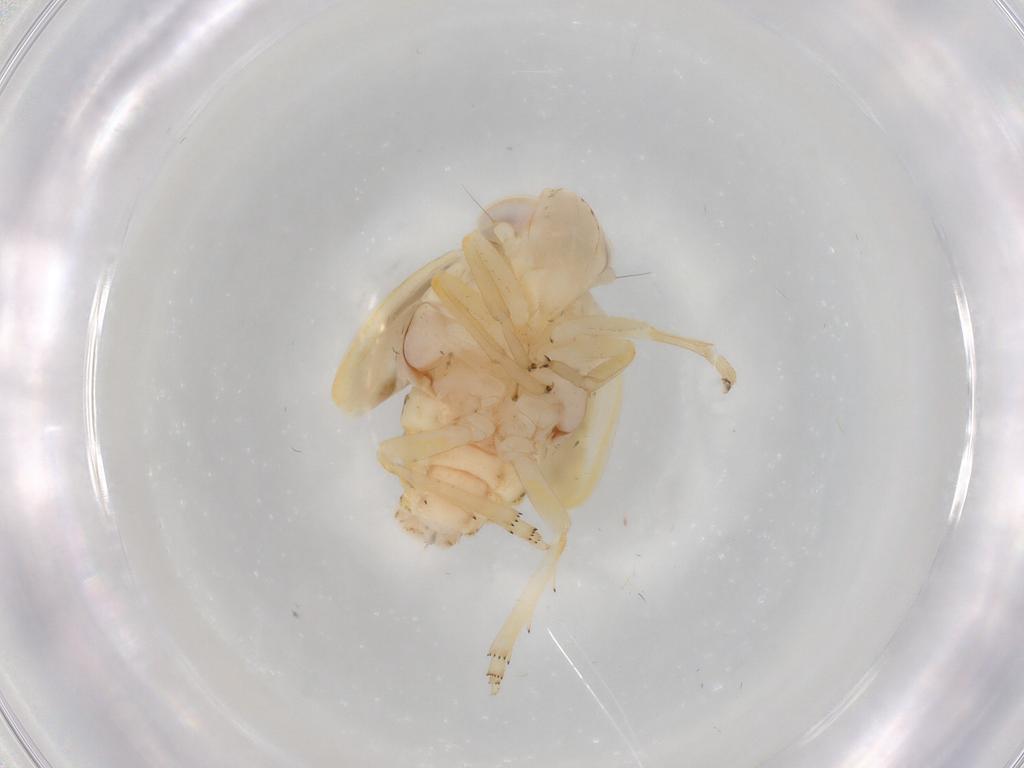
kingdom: Animalia
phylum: Arthropoda
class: Insecta
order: Hemiptera
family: Nogodinidae
